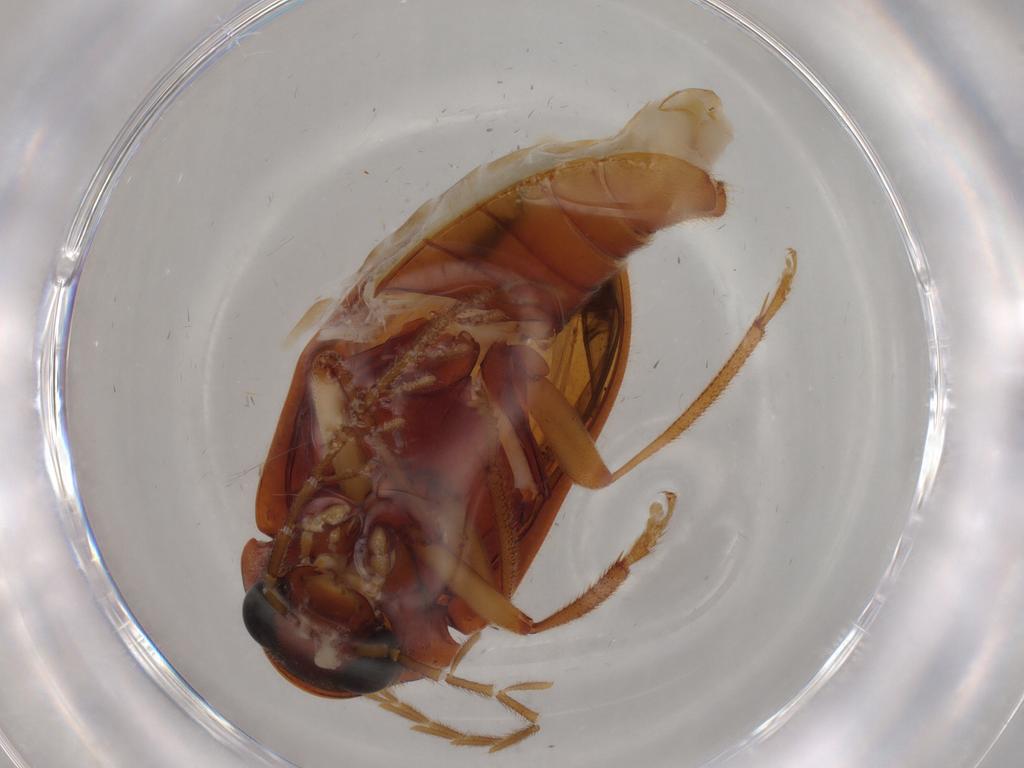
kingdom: Animalia
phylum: Arthropoda
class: Insecta
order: Coleoptera
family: Ptilodactylidae
